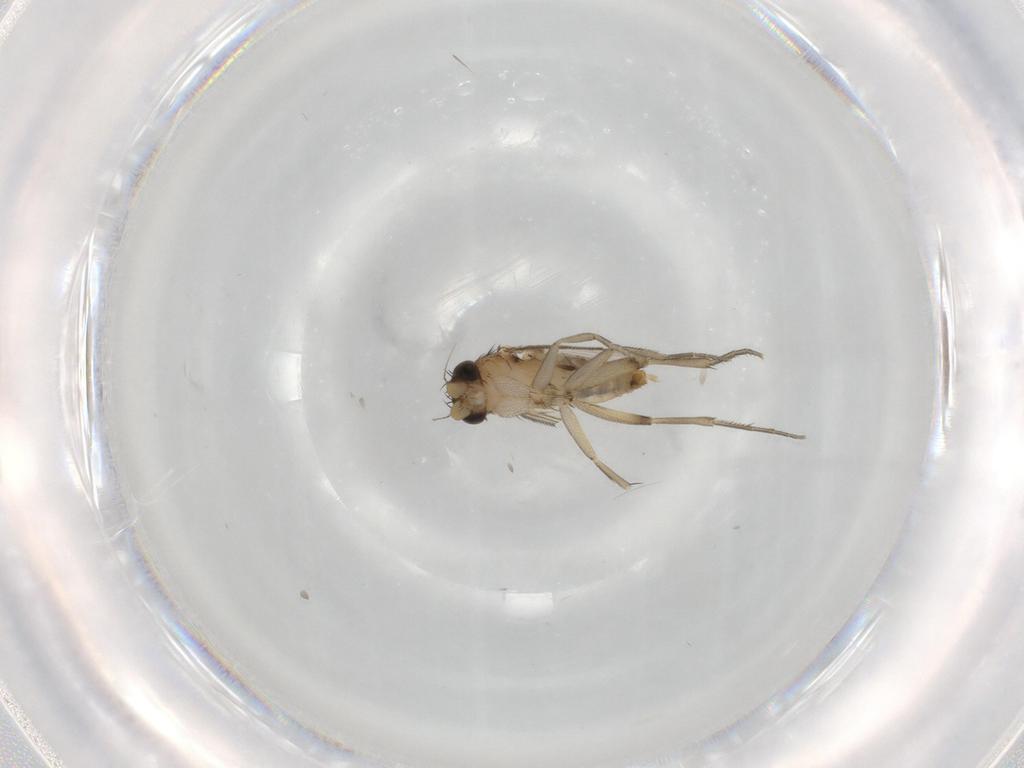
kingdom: Animalia
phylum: Arthropoda
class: Insecta
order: Diptera
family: Phoridae
